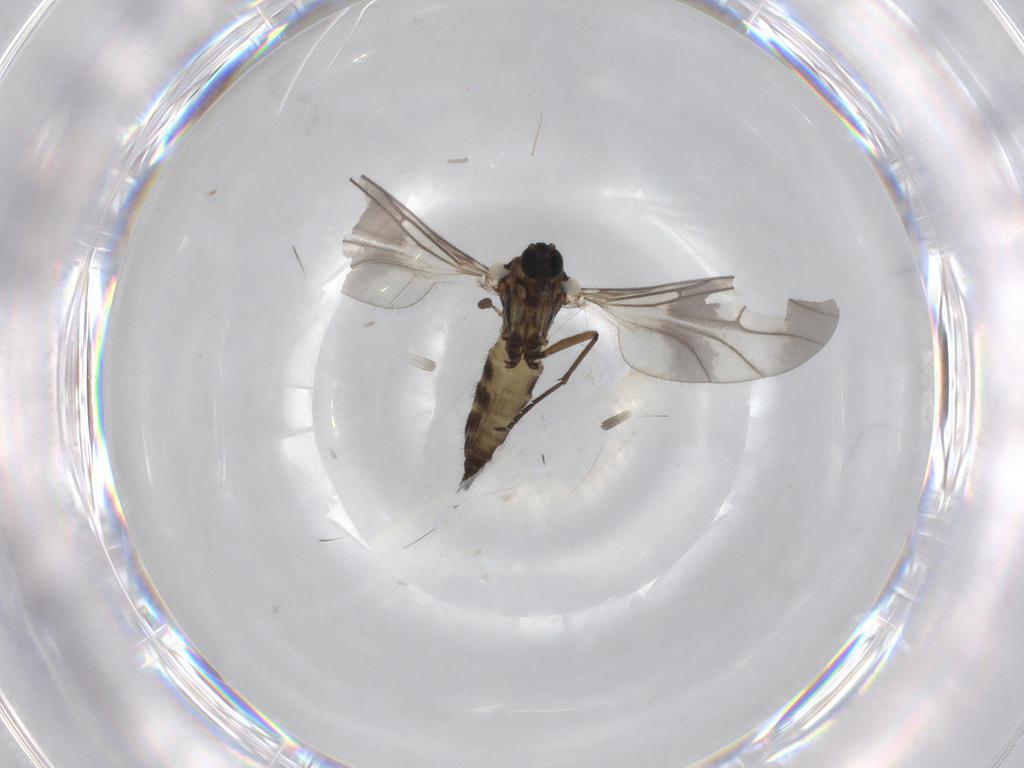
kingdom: Animalia
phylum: Arthropoda
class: Insecta
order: Diptera
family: Sciaridae
